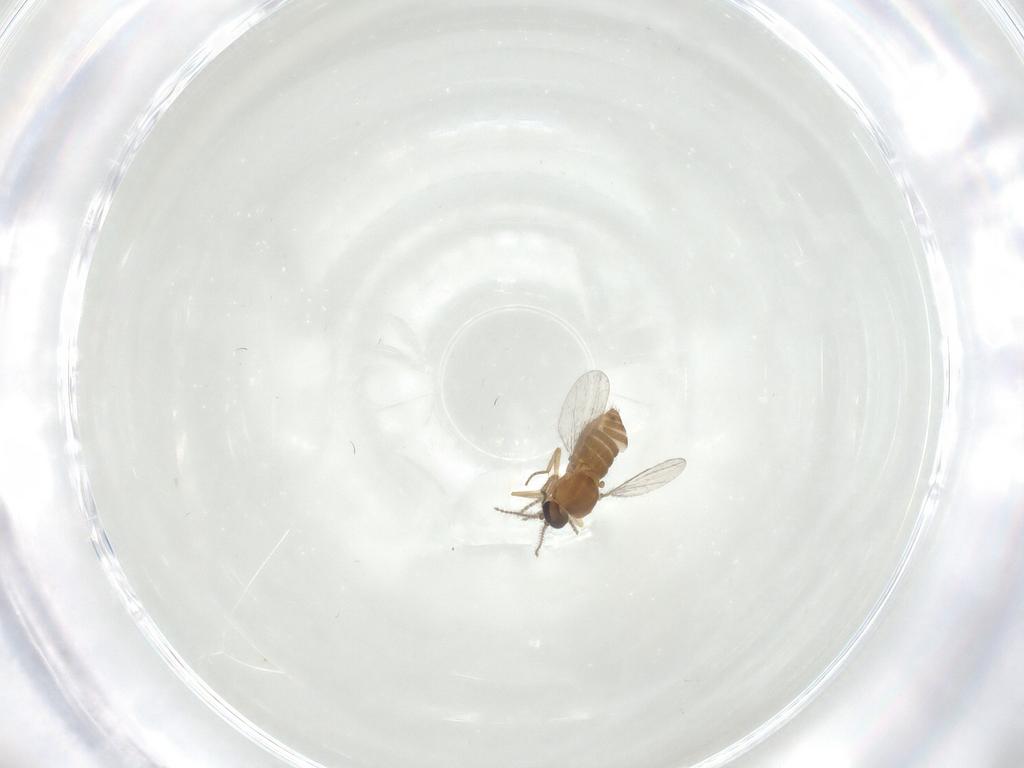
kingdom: Animalia
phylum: Arthropoda
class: Insecta
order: Diptera
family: Ceratopogonidae
